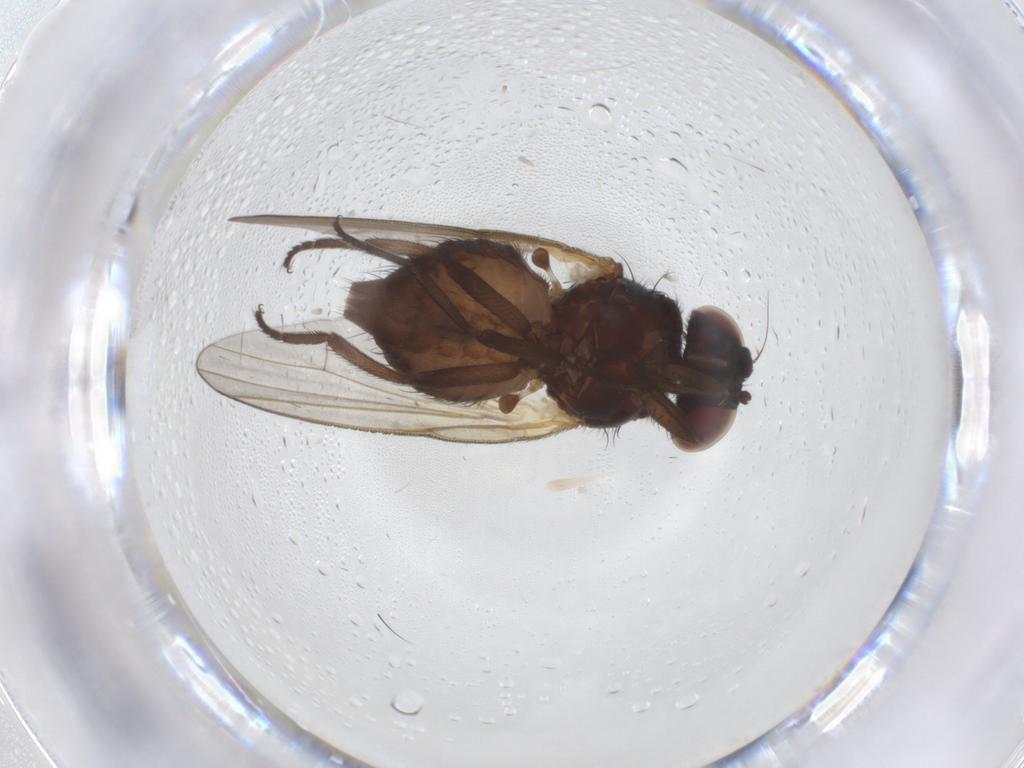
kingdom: Animalia
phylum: Arthropoda
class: Insecta
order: Diptera
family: Lonchaeidae
